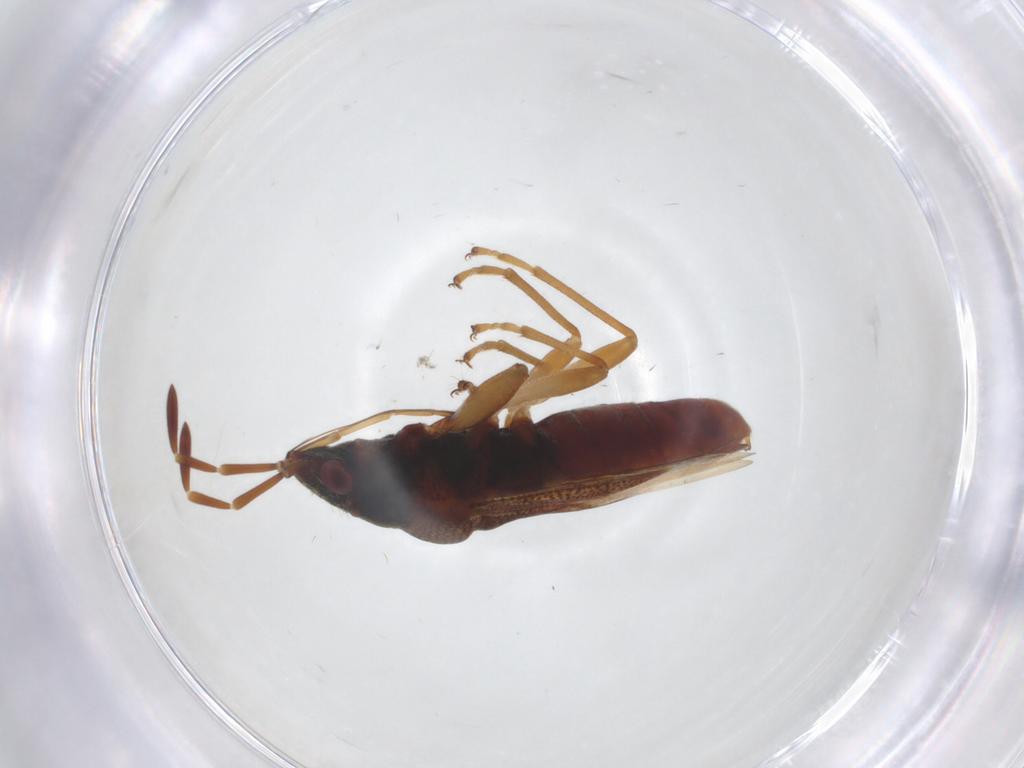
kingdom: Animalia
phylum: Arthropoda
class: Insecta
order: Hemiptera
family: Rhyparochromidae
